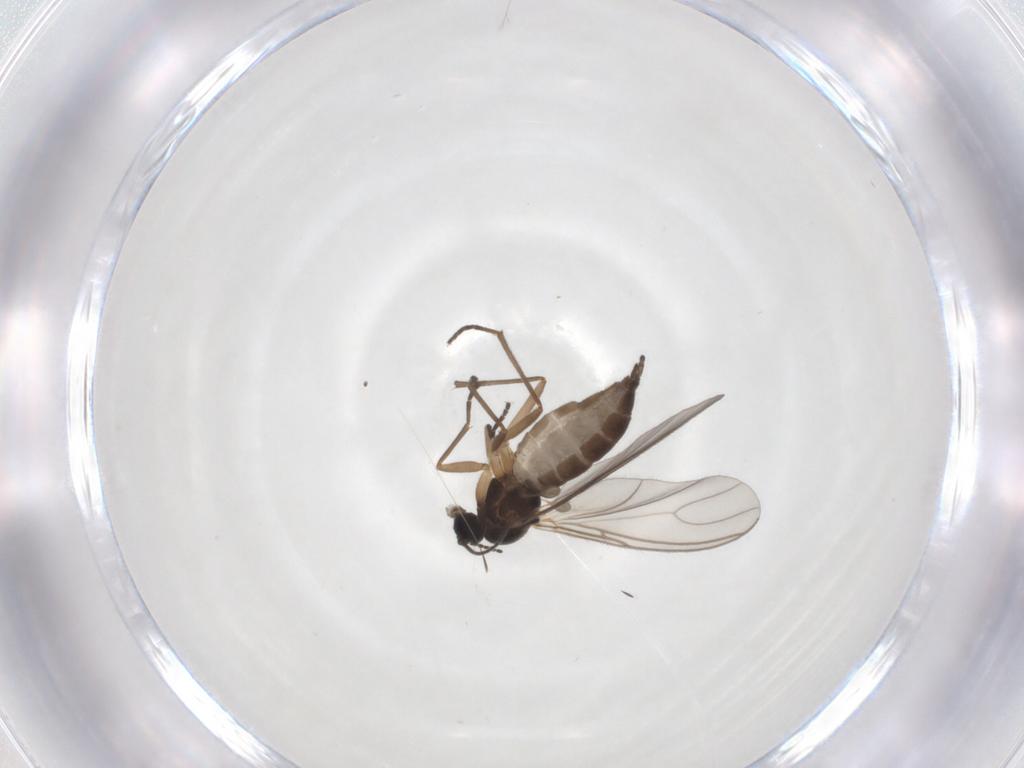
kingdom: Animalia
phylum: Arthropoda
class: Insecta
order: Diptera
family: Sciaridae
